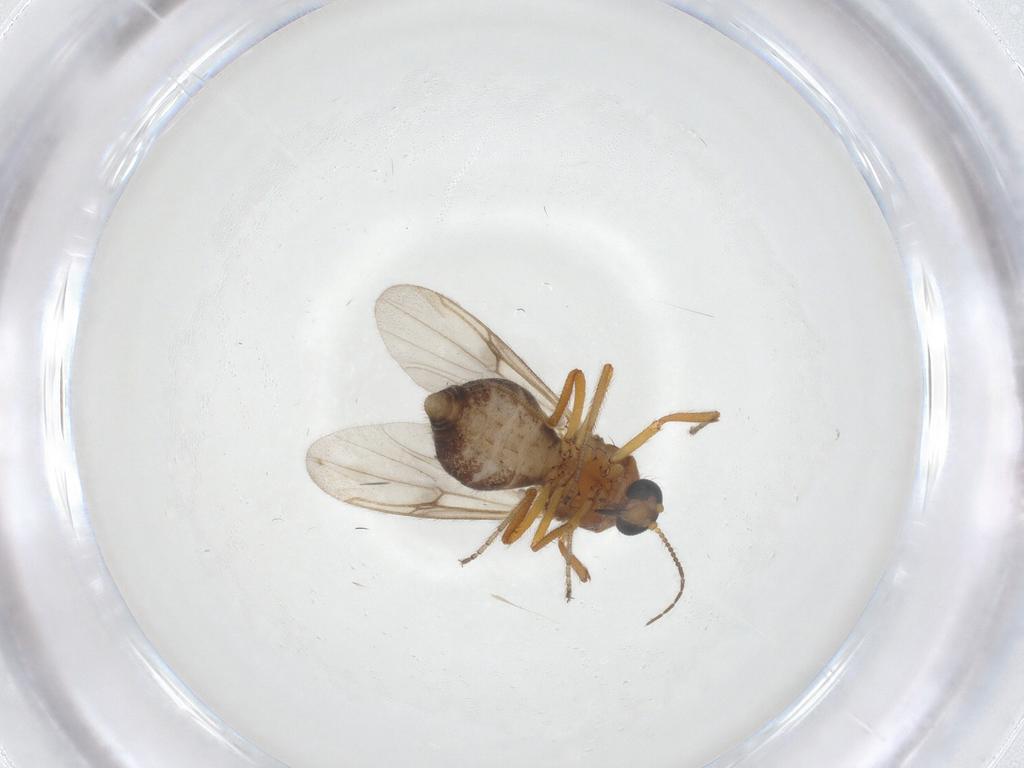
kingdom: Animalia
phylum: Arthropoda
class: Insecta
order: Diptera
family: Ceratopogonidae
